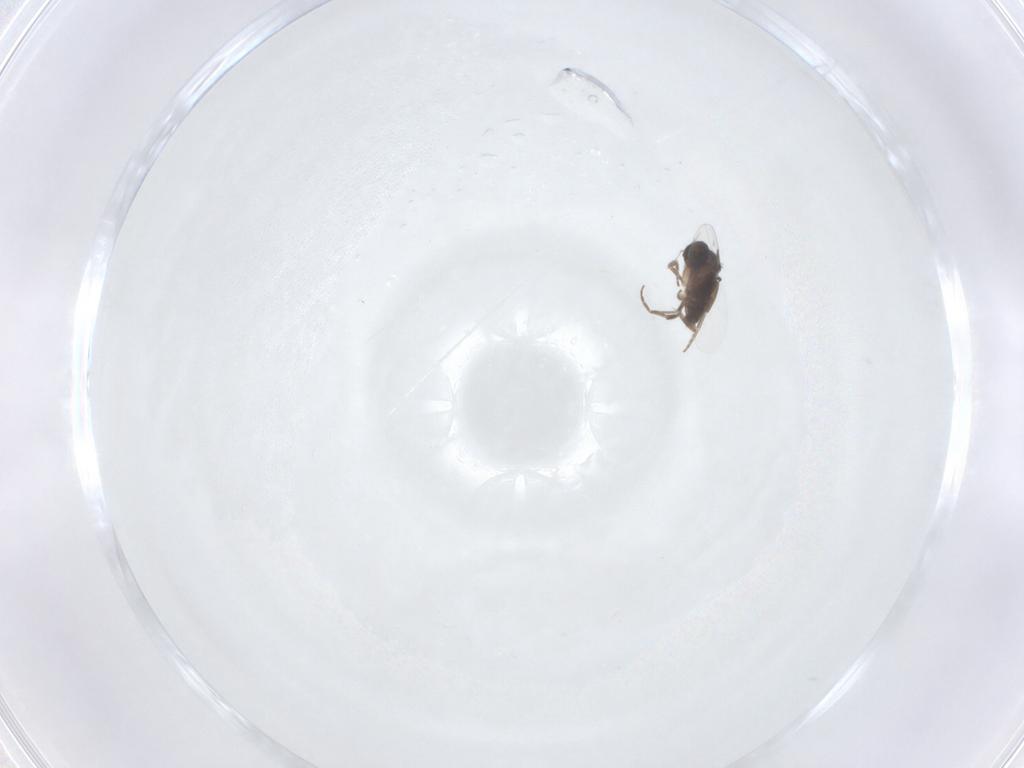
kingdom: Animalia
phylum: Arthropoda
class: Insecta
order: Diptera
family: Phoridae
